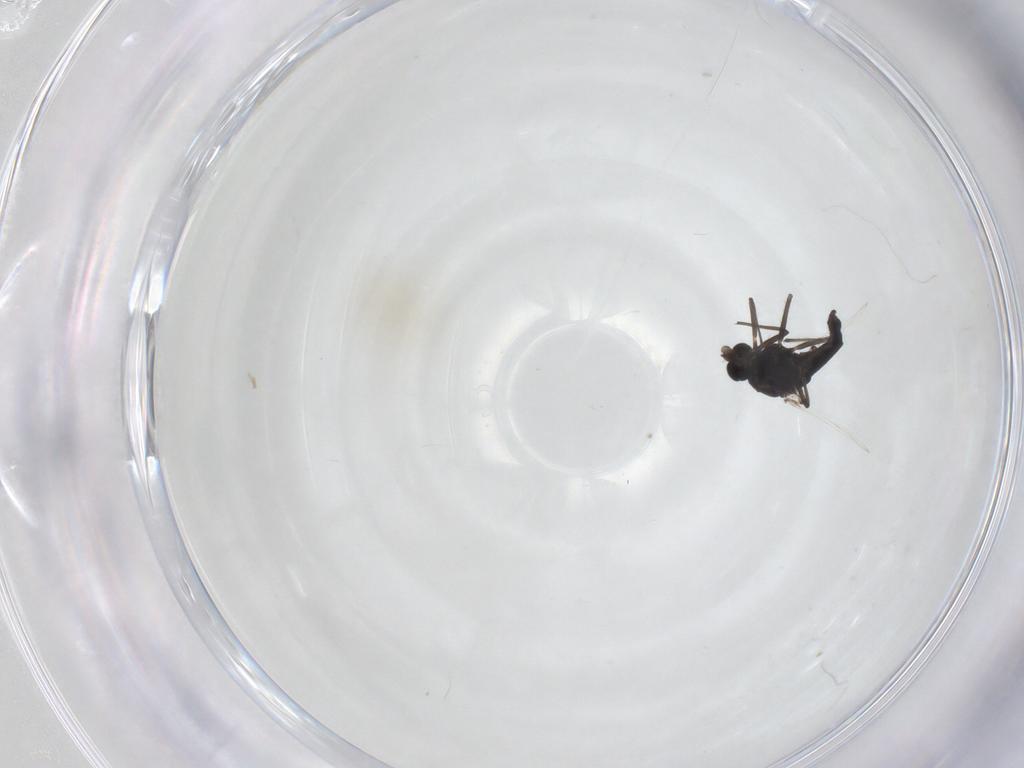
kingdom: Animalia
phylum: Arthropoda
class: Insecta
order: Diptera
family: Chironomidae
